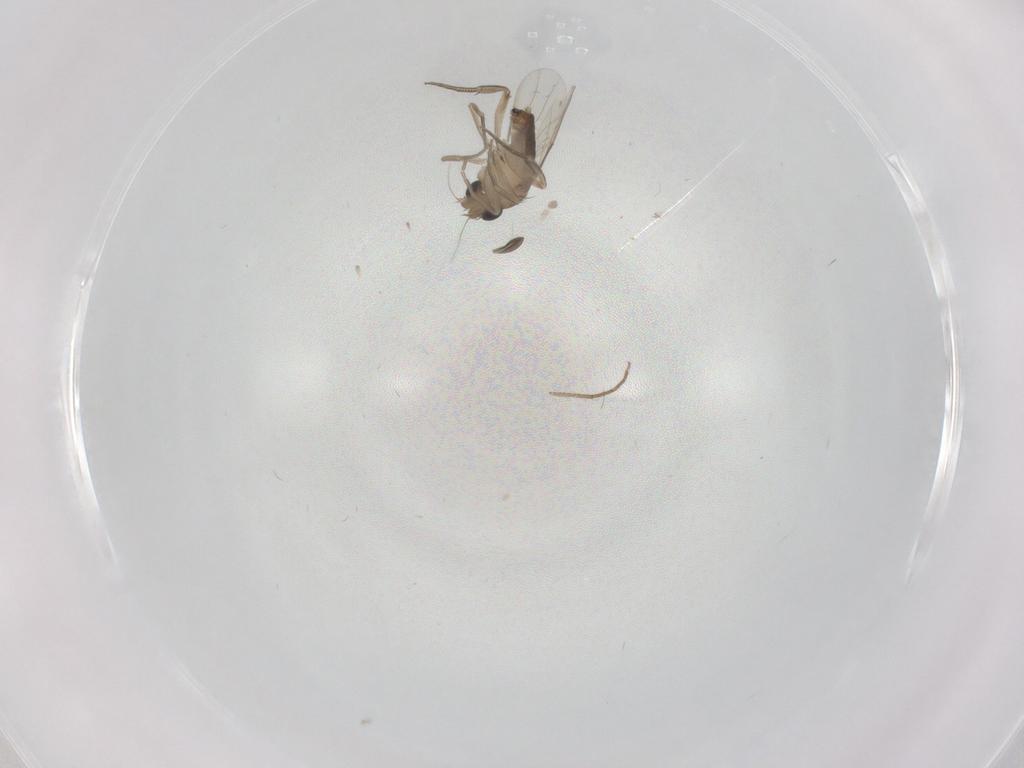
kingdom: Animalia
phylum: Arthropoda
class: Insecta
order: Diptera
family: Phoridae
